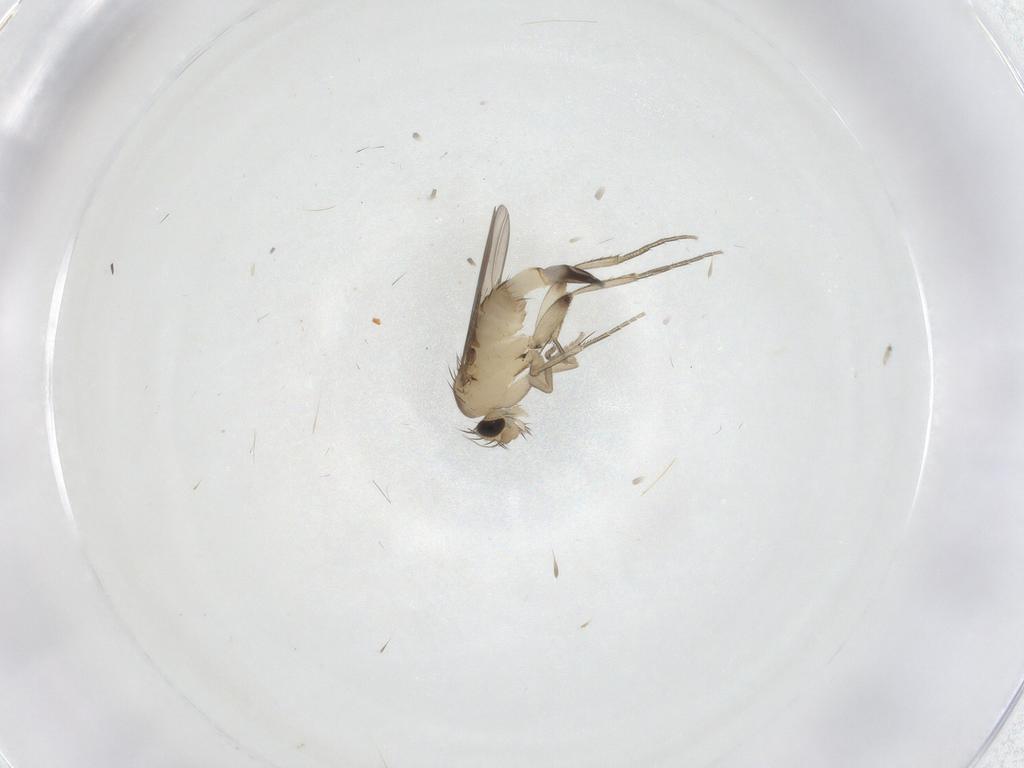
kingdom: Animalia
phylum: Arthropoda
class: Insecta
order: Diptera
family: Phoridae
